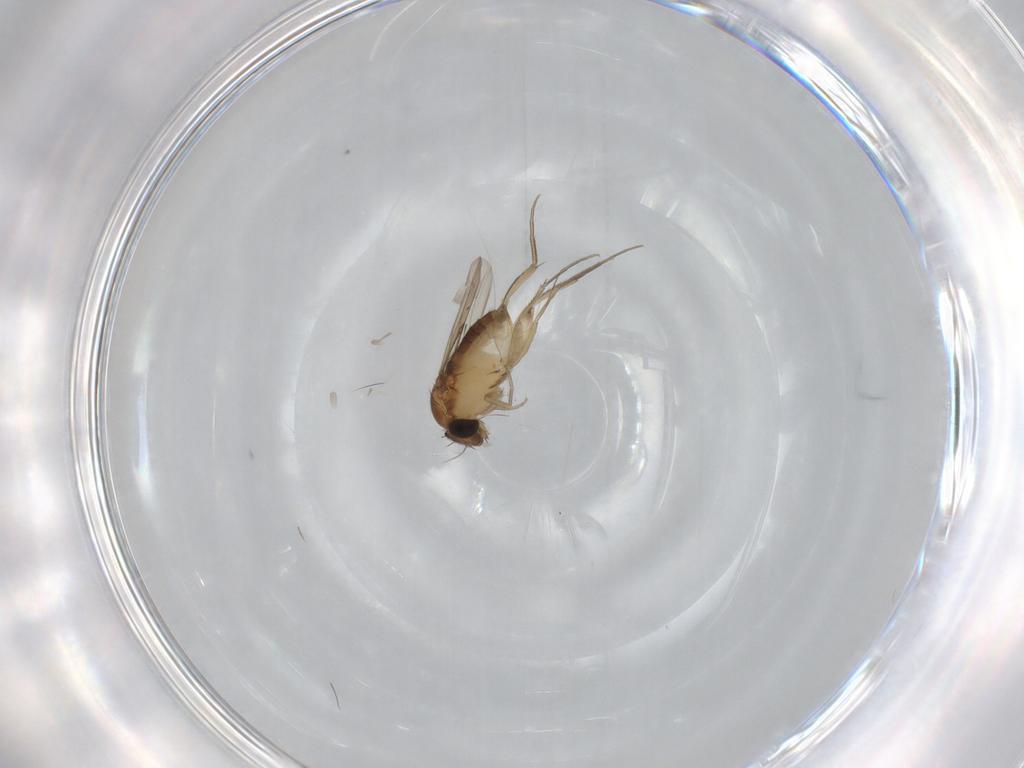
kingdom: Animalia
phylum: Arthropoda
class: Insecta
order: Diptera
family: Phoridae
